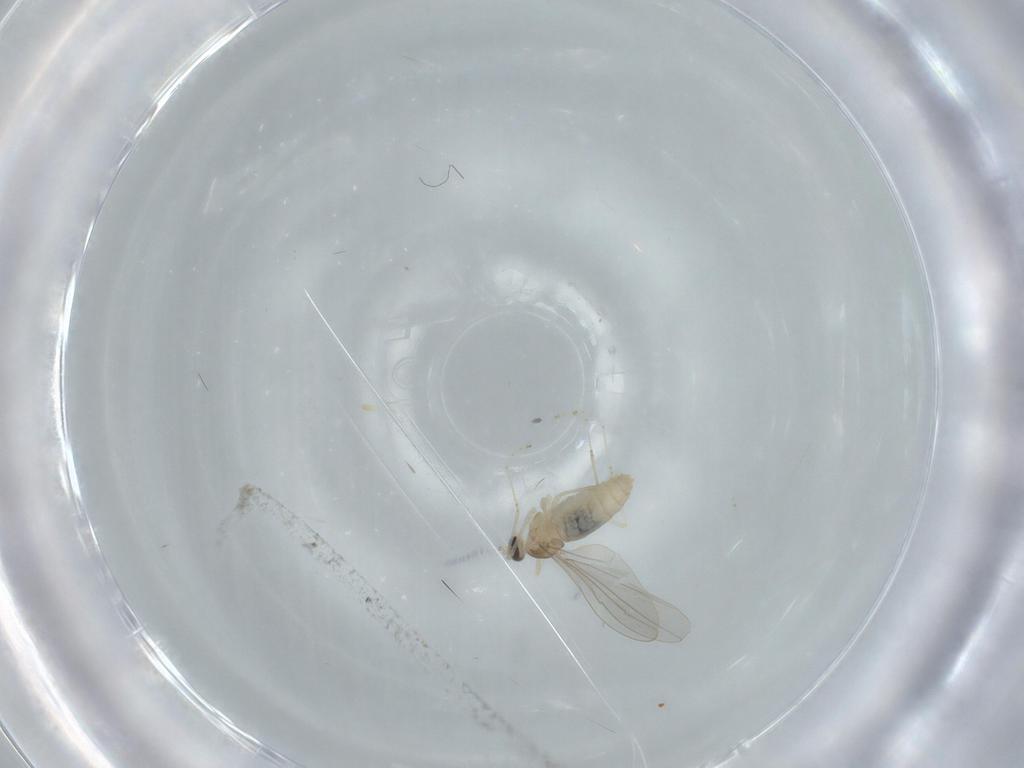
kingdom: Animalia
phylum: Arthropoda
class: Insecta
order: Diptera
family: Cecidomyiidae
